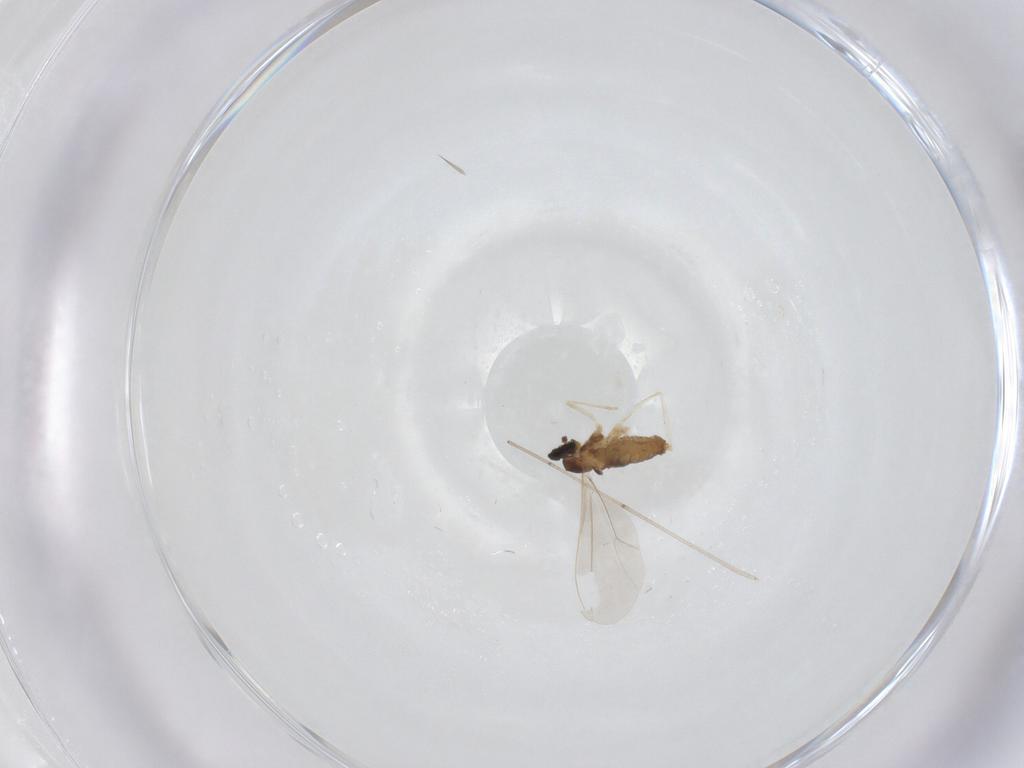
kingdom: Animalia
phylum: Arthropoda
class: Insecta
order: Diptera
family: Cecidomyiidae
